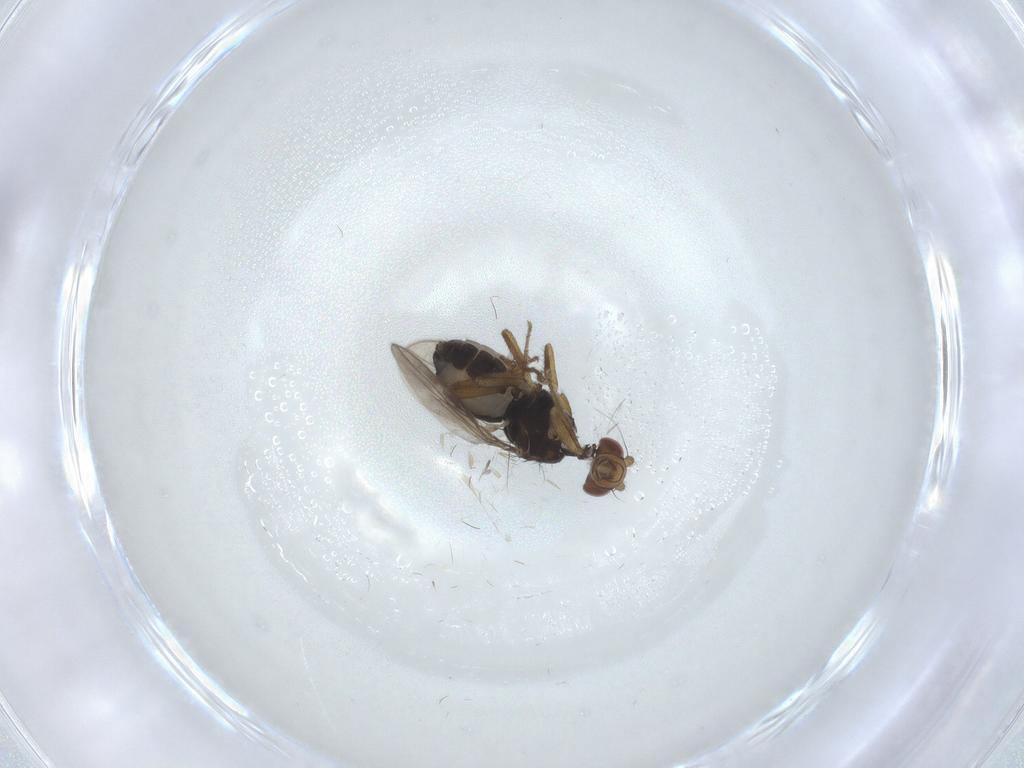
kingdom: Animalia
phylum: Arthropoda
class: Insecta
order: Diptera
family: Sphaeroceridae
